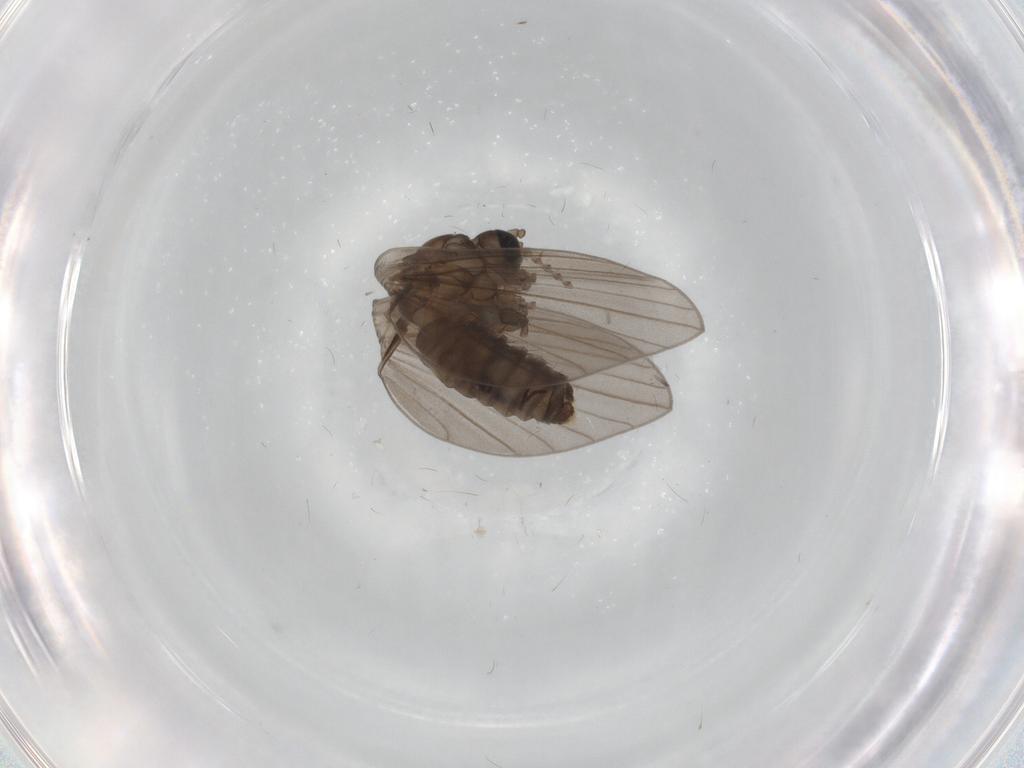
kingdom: Animalia
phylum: Arthropoda
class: Insecta
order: Diptera
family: Psychodidae
